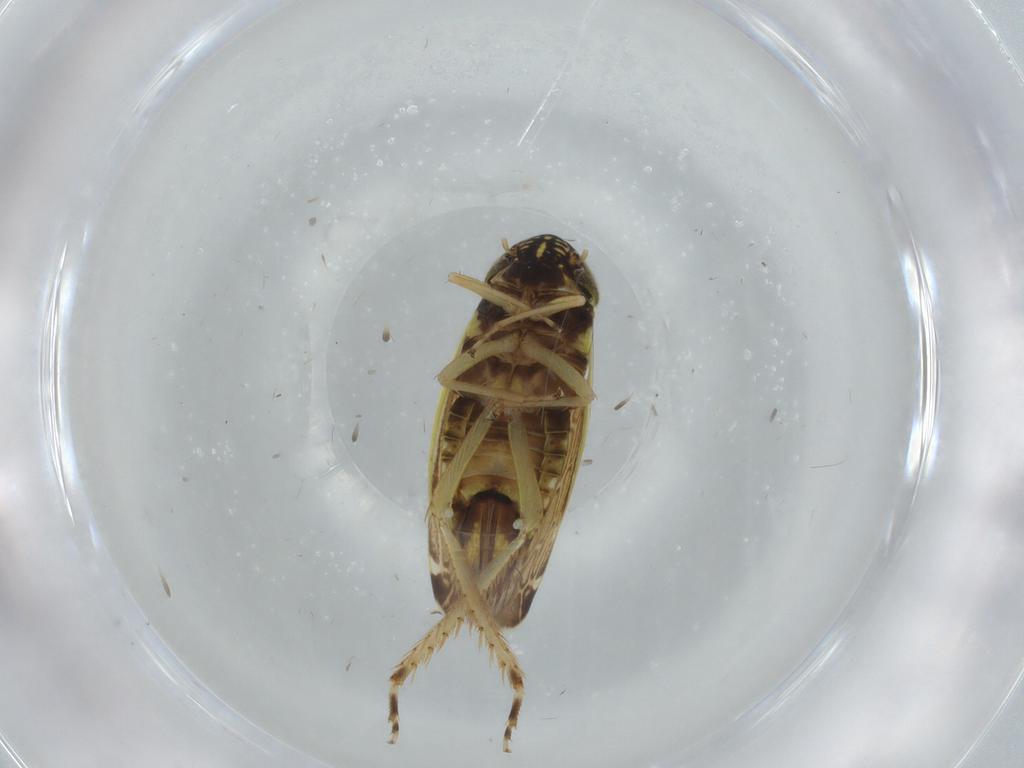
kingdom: Animalia
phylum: Arthropoda
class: Insecta
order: Hemiptera
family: Cicadellidae
